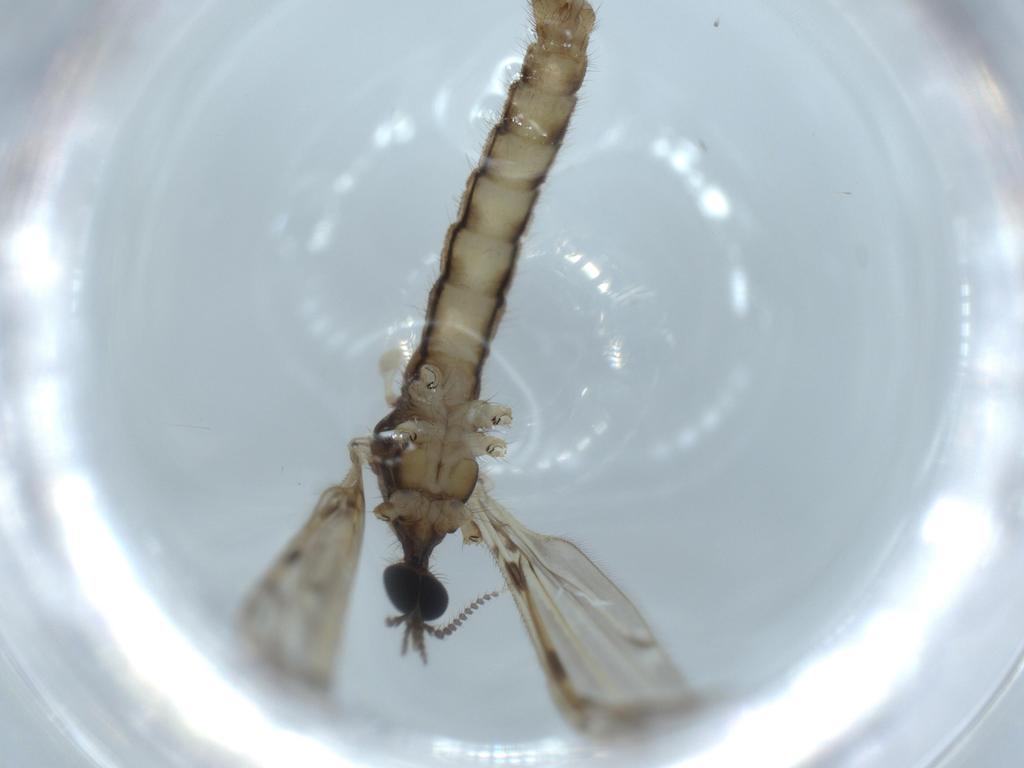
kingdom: Animalia
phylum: Arthropoda
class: Insecta
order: Diptera
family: Limoniidae
